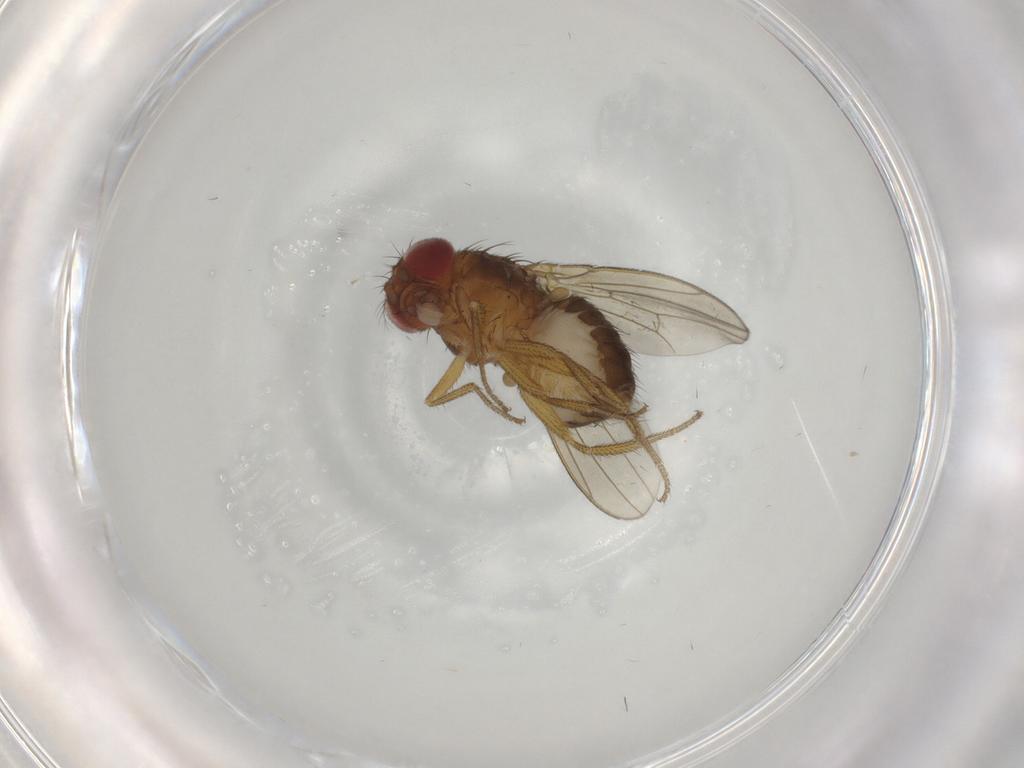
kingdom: Animalia
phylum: Arthropoda
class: Insecta
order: Diptera
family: Drosophilidae
